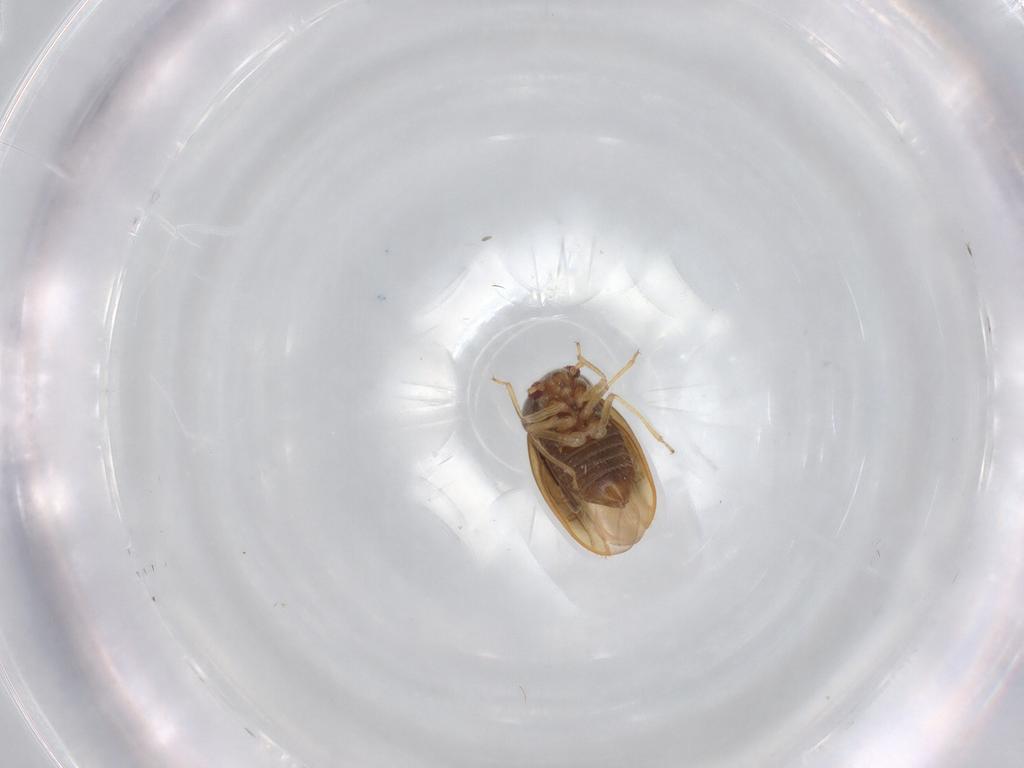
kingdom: Animalia
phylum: Arthropoda
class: Insecta
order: Hemiptera
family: Schizopteridae
